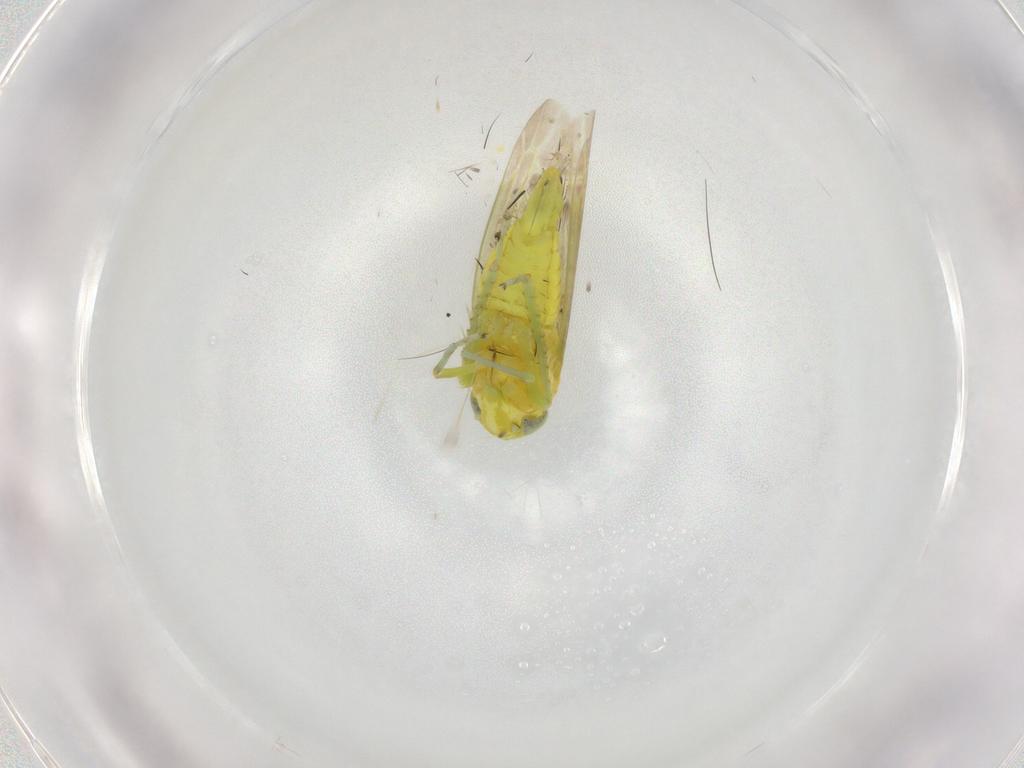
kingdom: Animalia
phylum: Arthropoda
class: Insecta
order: Hemiptera
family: Cicadellidae
